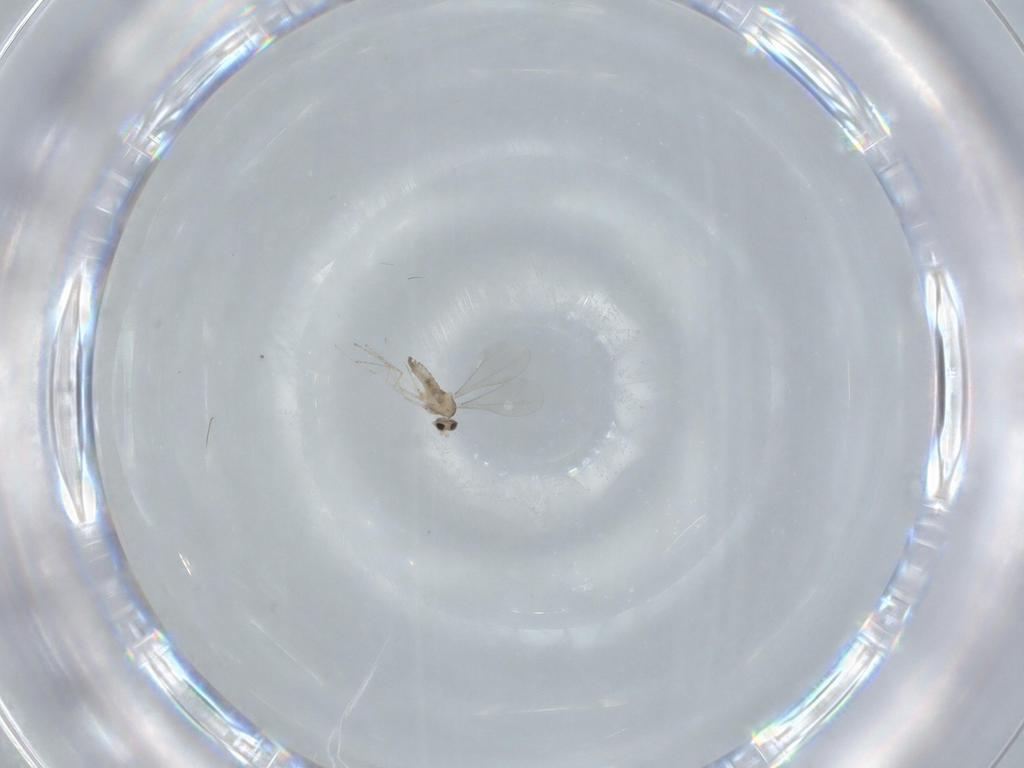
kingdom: Animalia
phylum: Arthropoda
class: Insecta
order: Diptera
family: Cecidomyiidae
